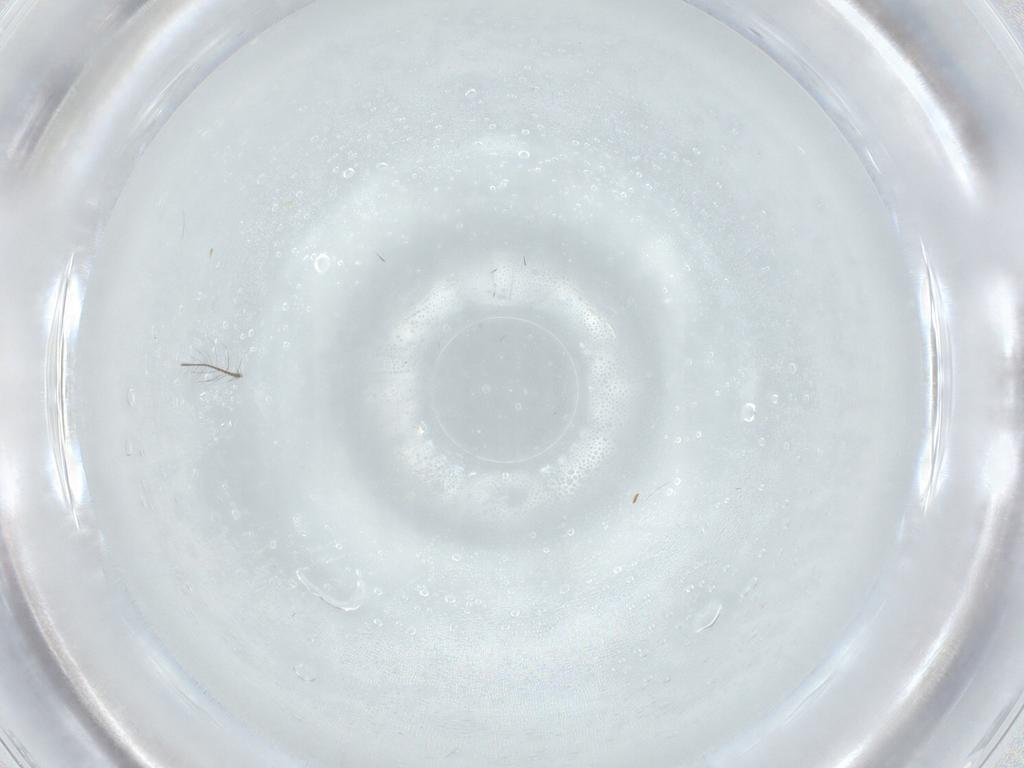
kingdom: Animalia
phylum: Arthropoda
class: Insecta
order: Diptera
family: Chironomidae
